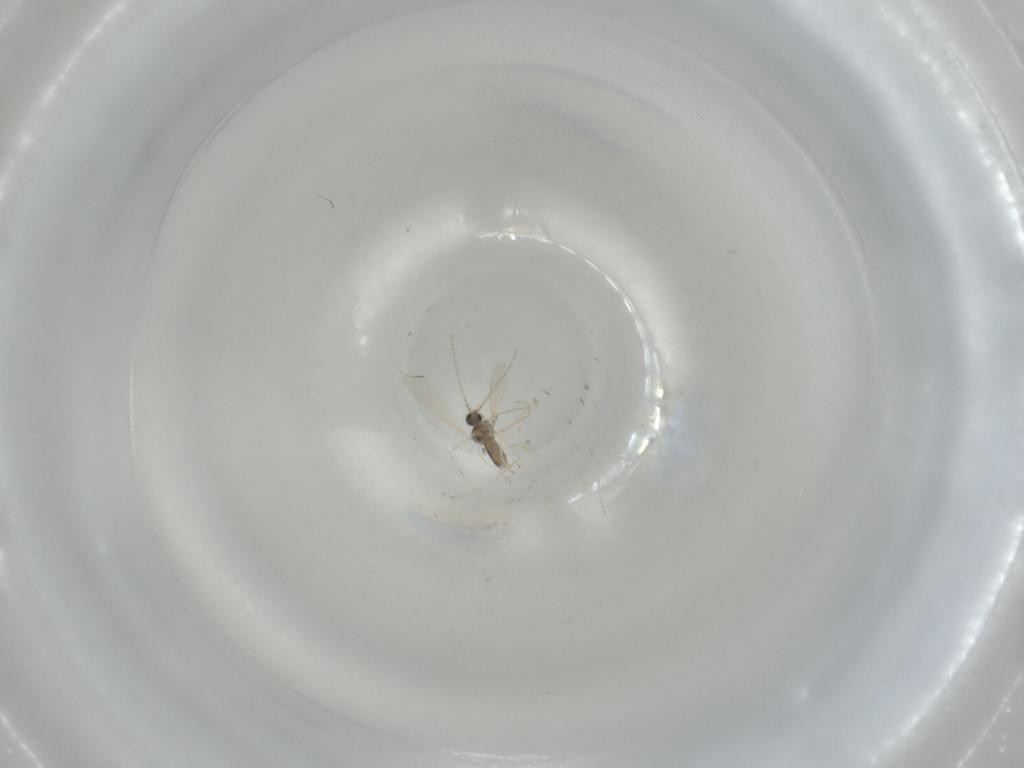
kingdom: Animalia
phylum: Arthropoda
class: Insecta
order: Diptera
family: Cecidomyiidae
